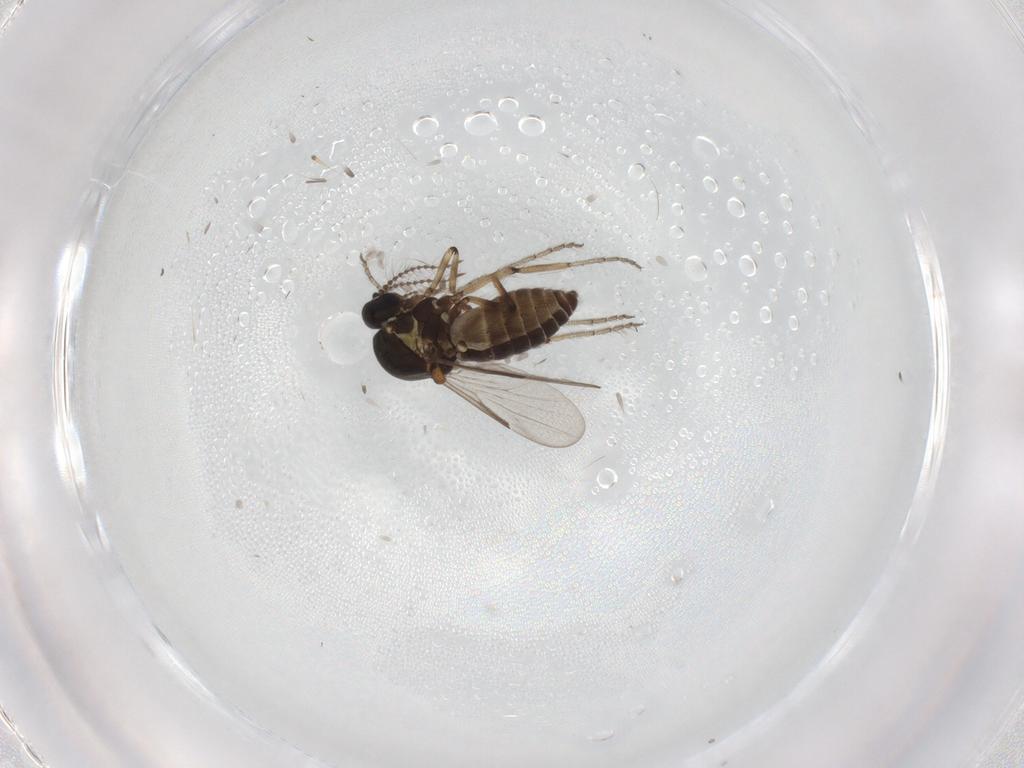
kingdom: Animalia
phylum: Arthropoda
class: Insecta
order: Diptera
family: Ceratopogonidae
